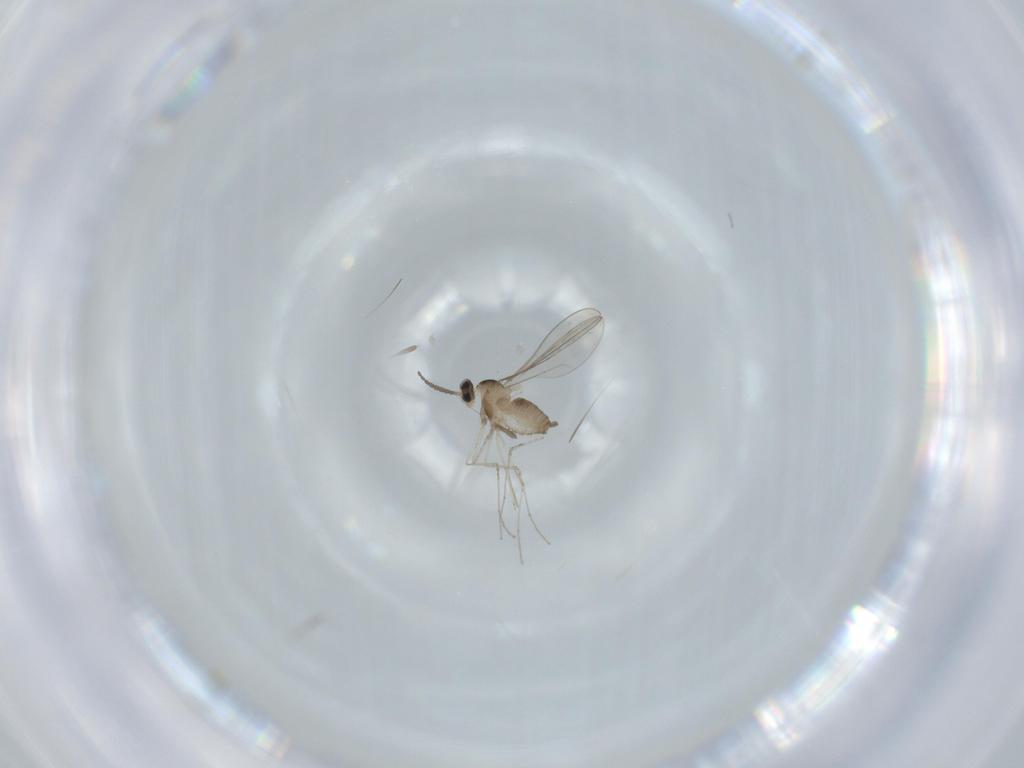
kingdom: Animalia
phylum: Arthropoda
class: Insecta
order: Diptera
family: Cecidomyiidae
